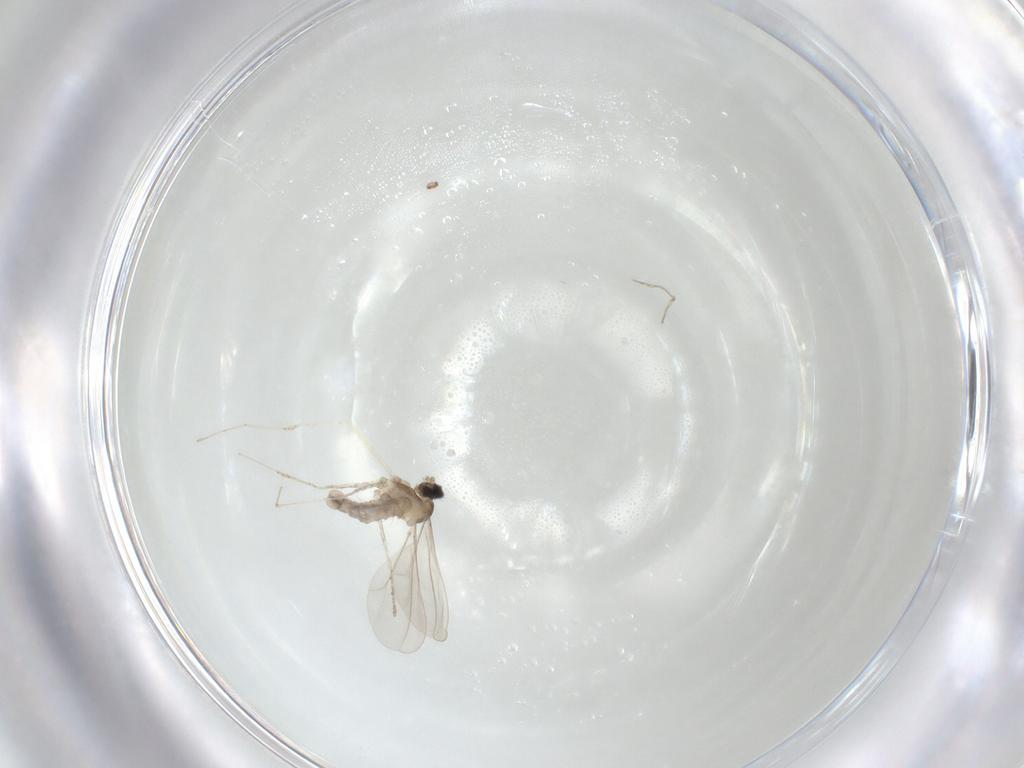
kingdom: Animalia
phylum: Arthropoda
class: Insecta
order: Diptera
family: Cecidomyiidae
